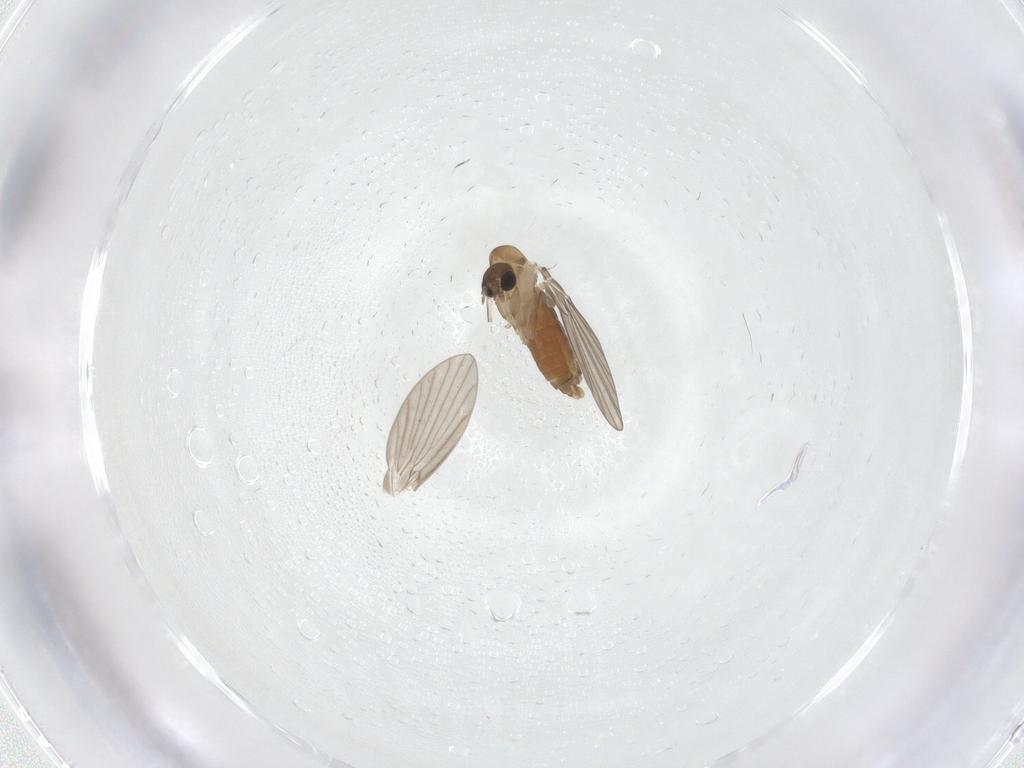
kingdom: Animalia
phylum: Arthropoda
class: Insecta
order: Diptera
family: Psychodidae
